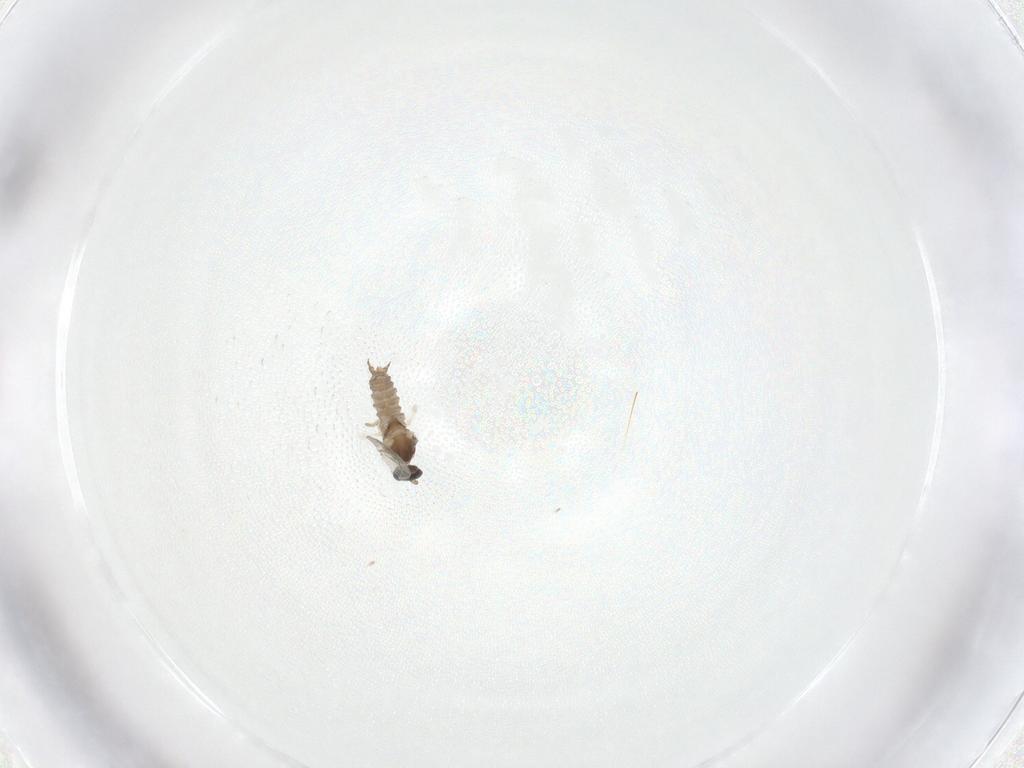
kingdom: Animalia
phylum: Arthropoda
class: Insecta
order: Diptera
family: Cecidomyiidae
